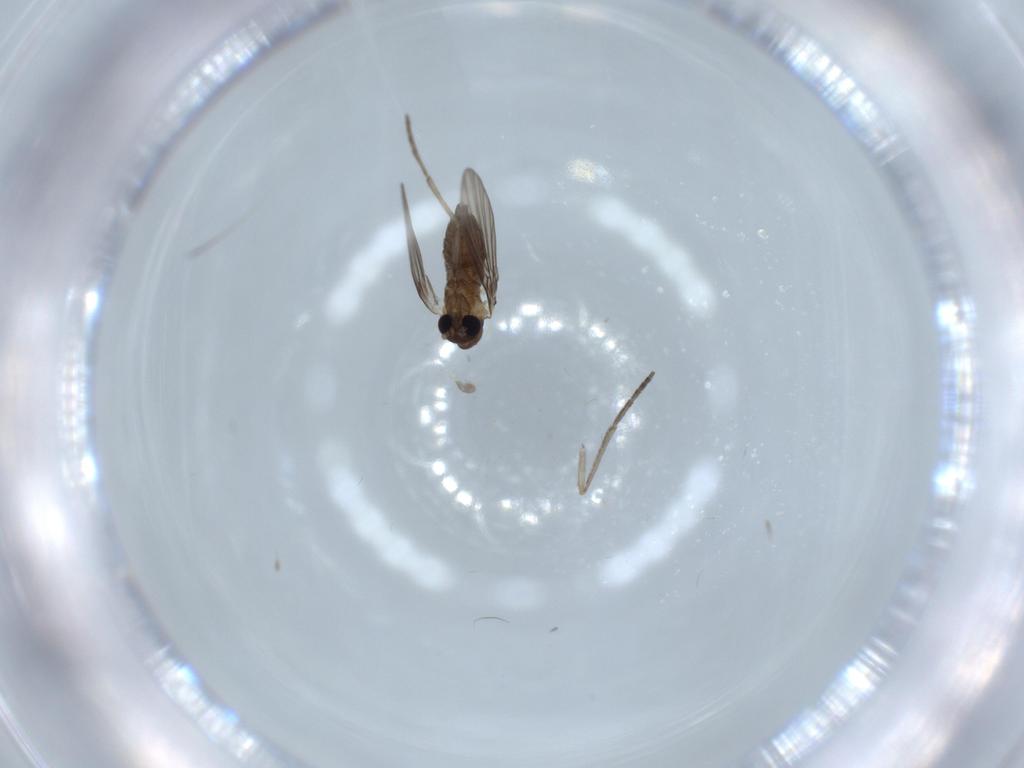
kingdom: Animalia
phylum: Arthropoda
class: Insecta
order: Diptera
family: Psychodidae
